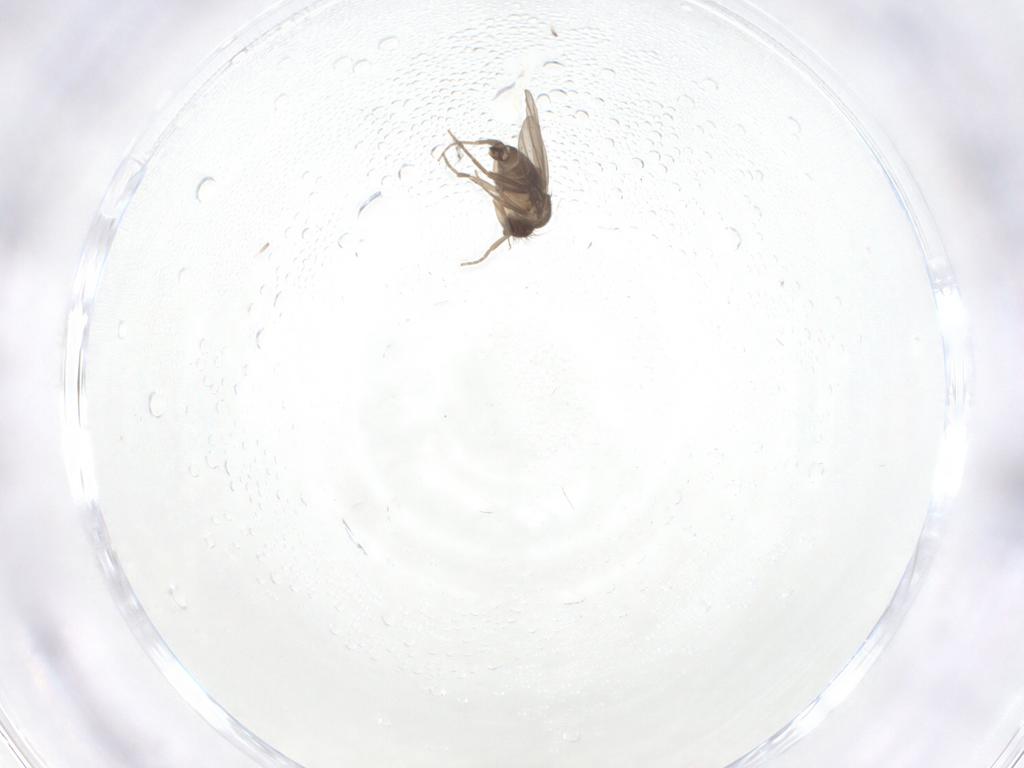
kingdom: Animalia
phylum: Arthropoda
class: Insecta
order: Diptera
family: Phoridae
